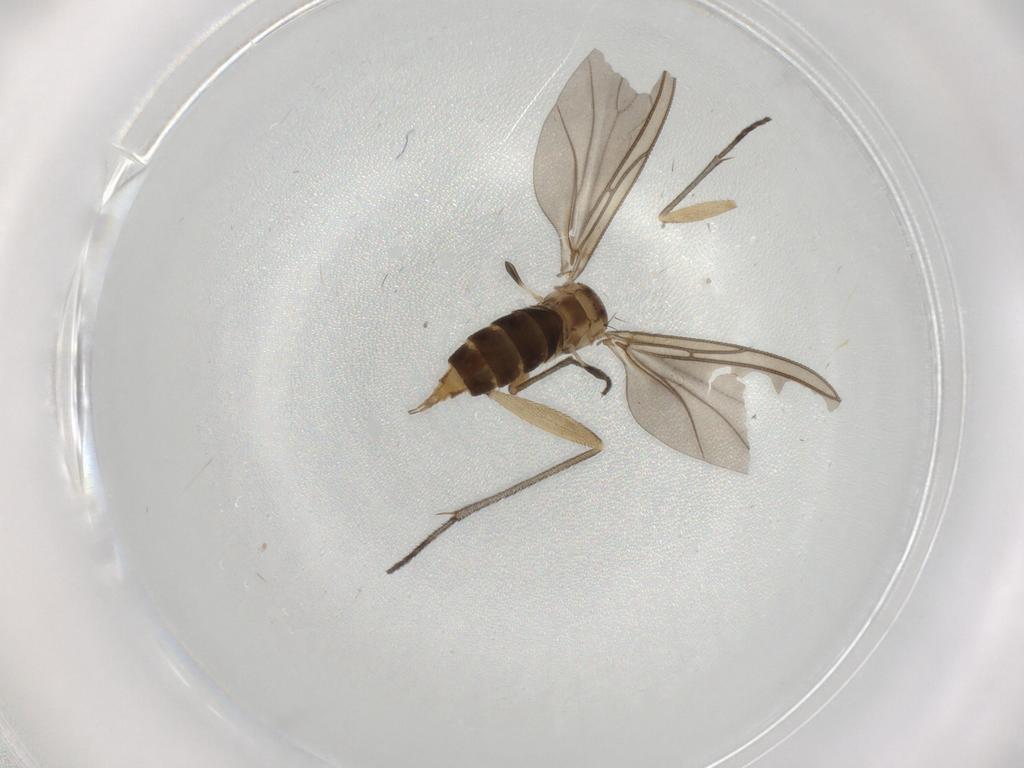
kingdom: Animalia
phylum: Arthropoda
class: Insecta
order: Diptera
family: Sciaridae
